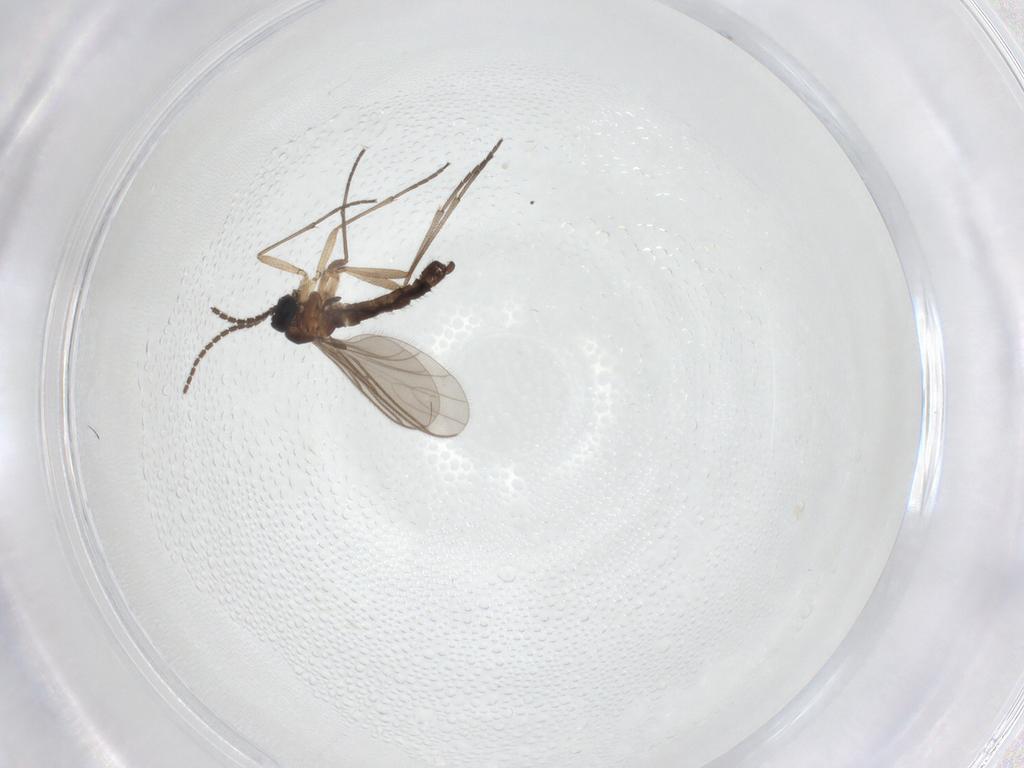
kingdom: Animalia
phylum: Arthropoda
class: Insecta
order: Diptera
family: Sciaridae
